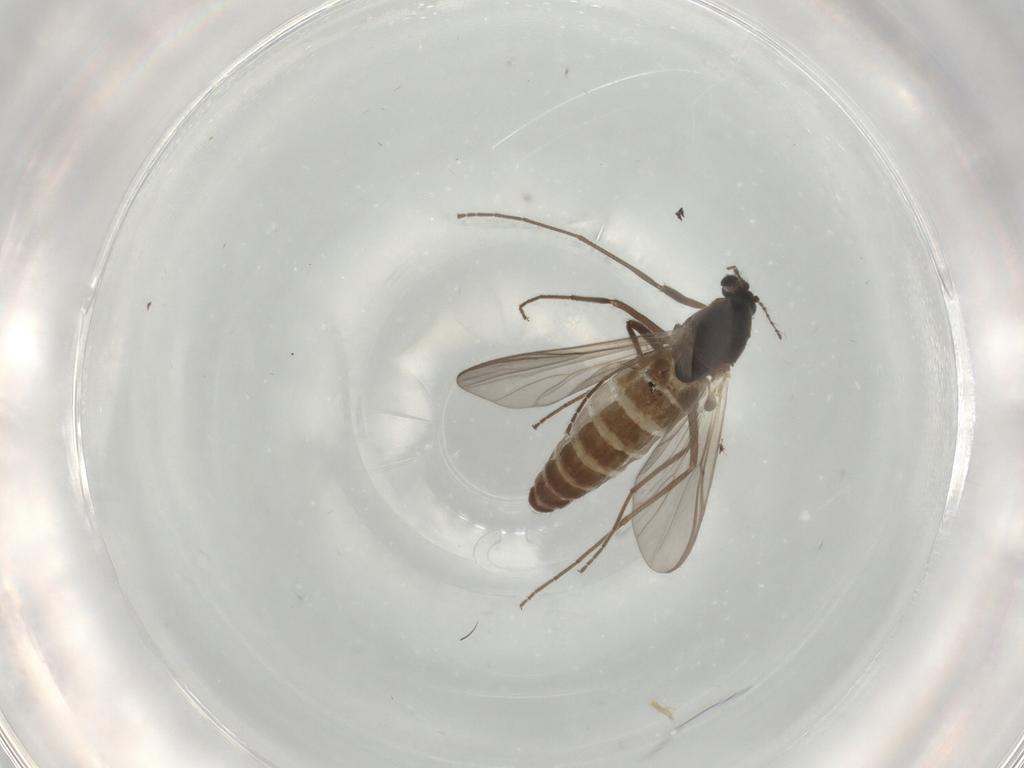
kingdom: Animalia
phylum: Arthropoda
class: Insecta
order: Diptera
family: Chironomidae
